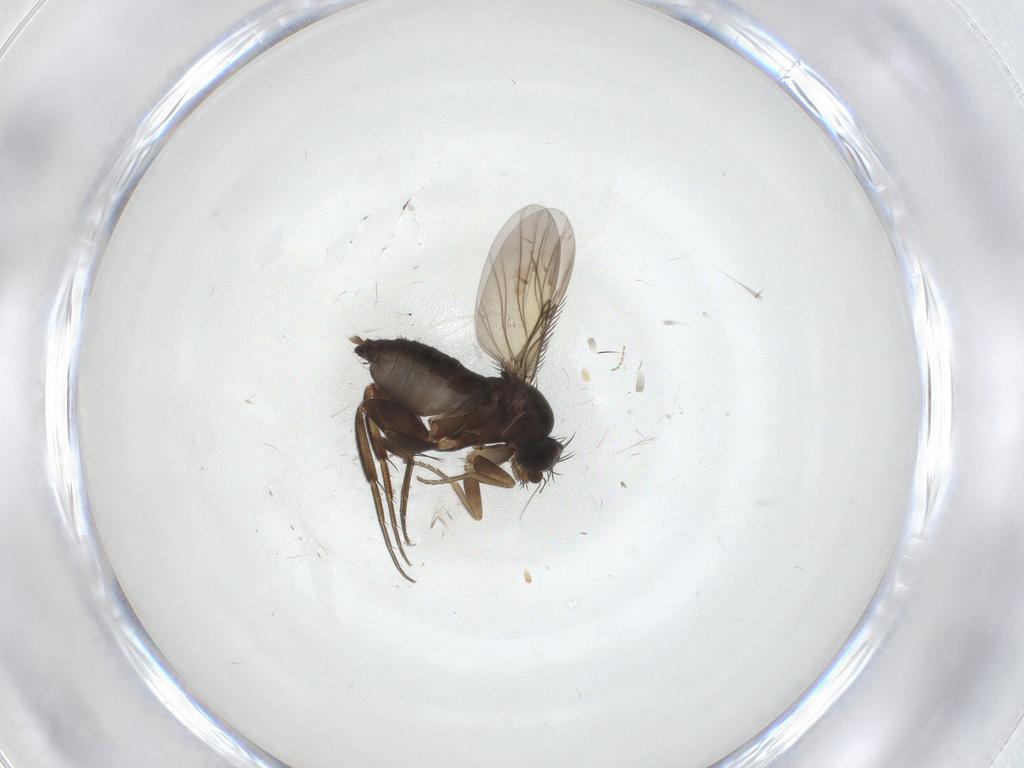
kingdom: Animalia
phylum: Arthropoda
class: Insecta
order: Diptera
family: Phoridae
